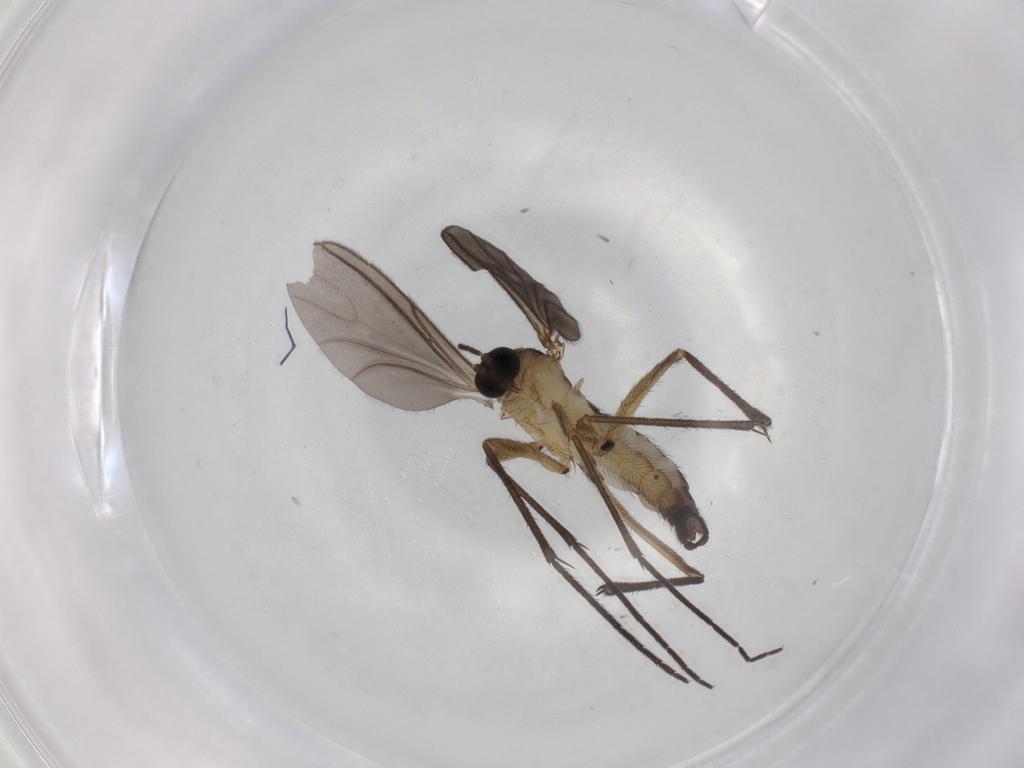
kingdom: Animalia
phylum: Arthropoda
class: Insecta
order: Diptera
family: Sciaridae
